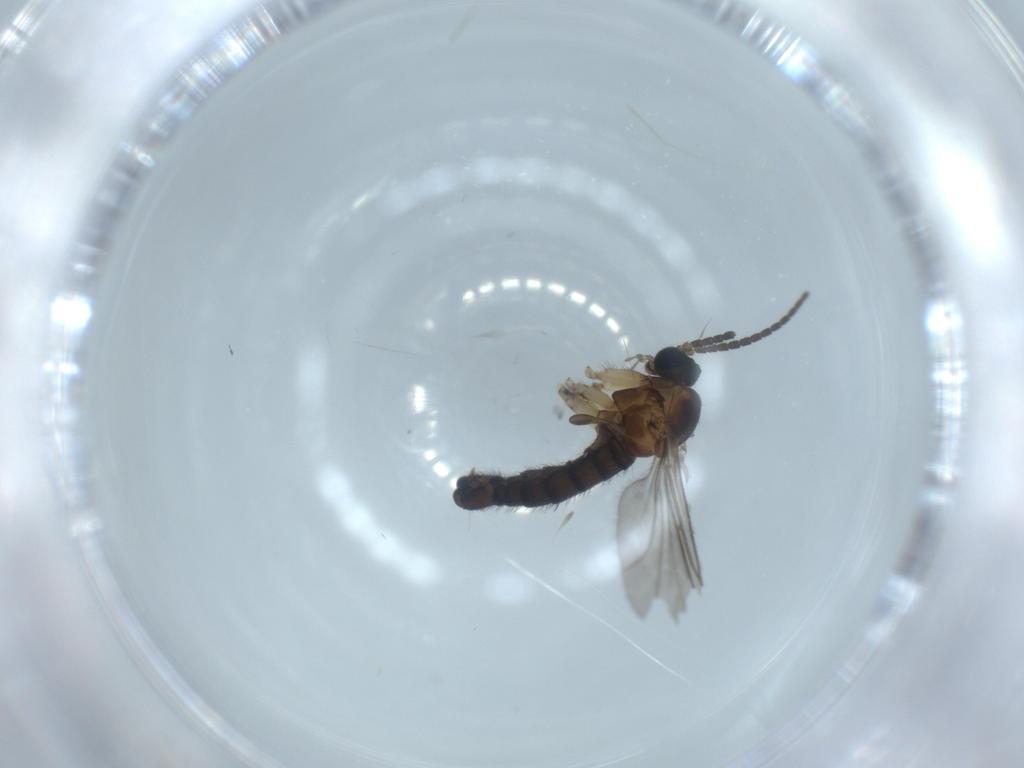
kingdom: Animalia
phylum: Arthropoda
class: Insecta
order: Diptera
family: Sciaridae
